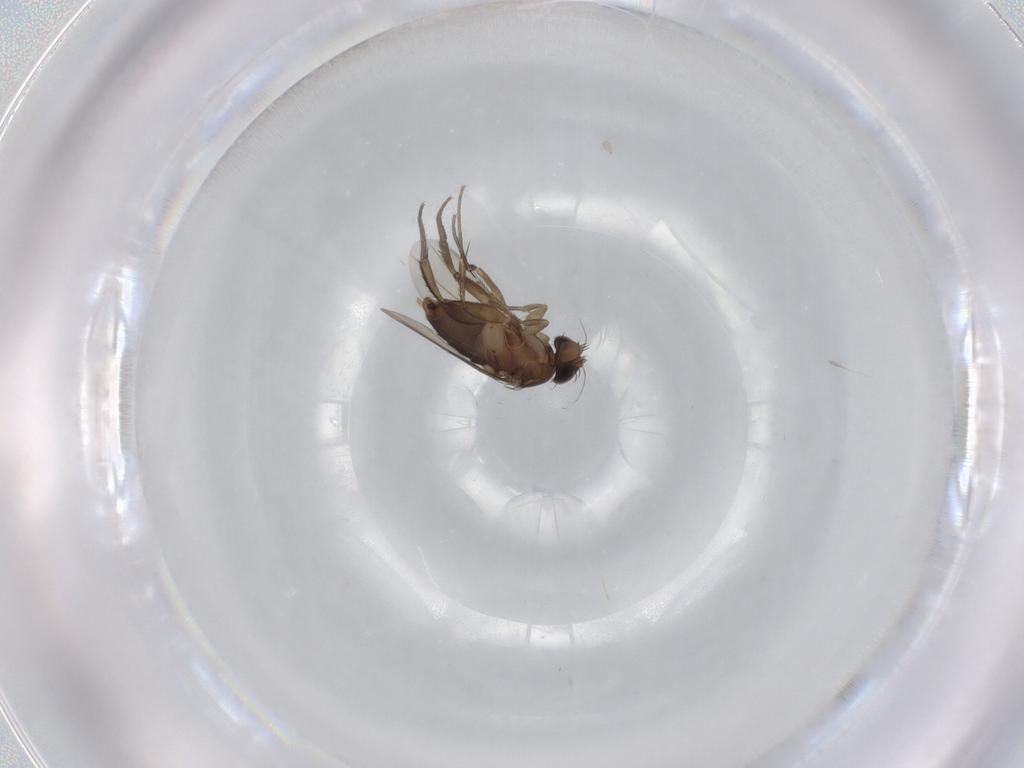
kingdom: Animalia
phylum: Arthropoda
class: Insecta
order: Diptera
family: Phoridae
